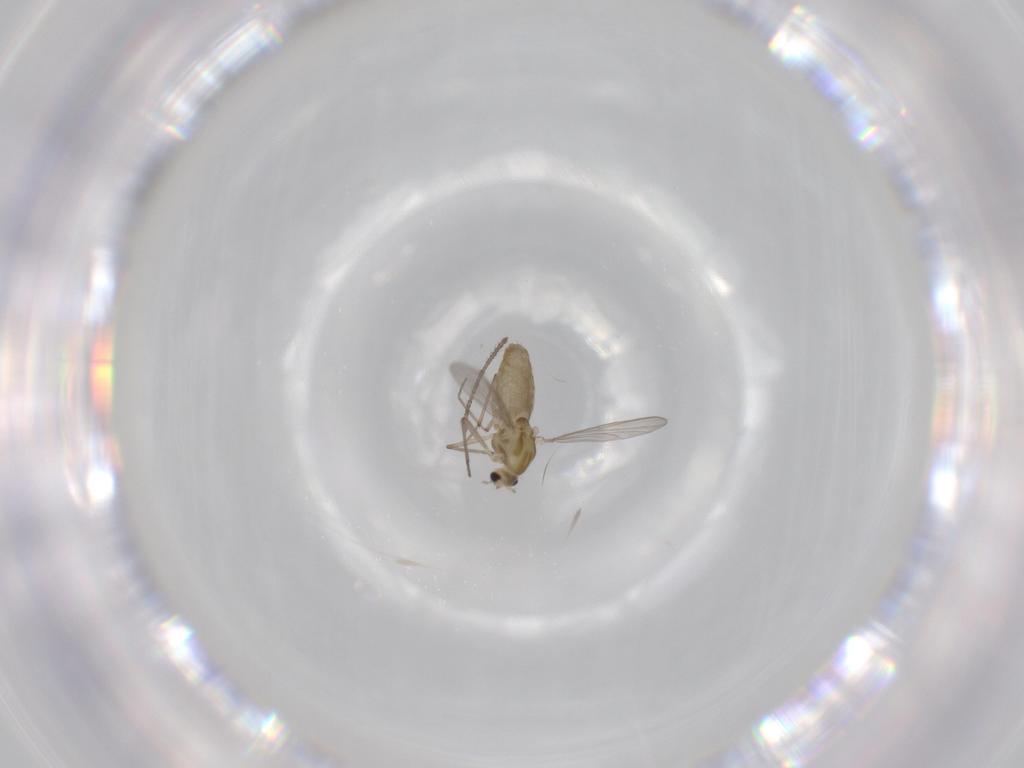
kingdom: Animalia
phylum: Arthropoda
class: Insecta
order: Diptera
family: Chironomidae
